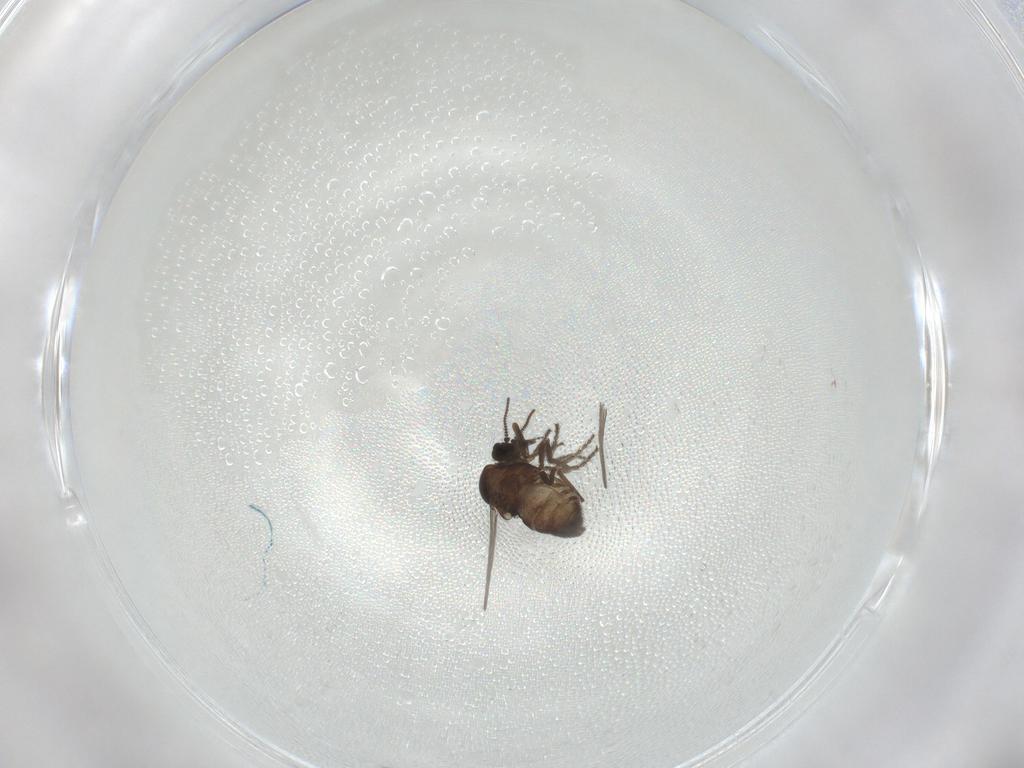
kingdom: Animalia
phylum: Arthropoda
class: Insecta
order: Diptera
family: Ceratopogonidae
